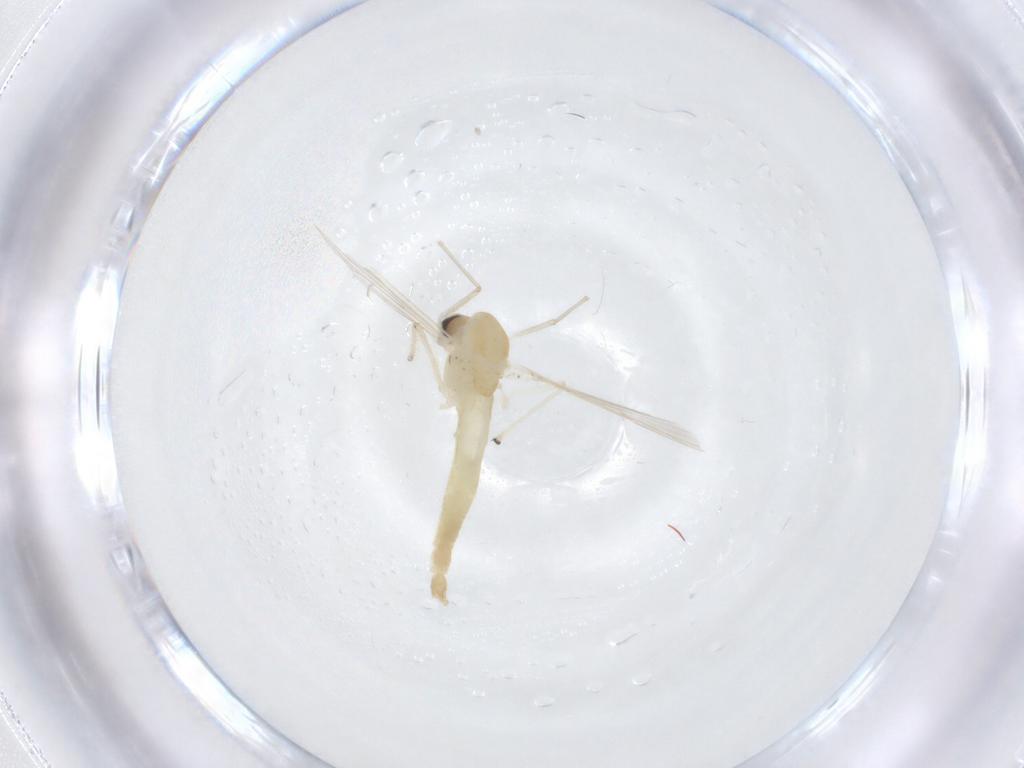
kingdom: Animalia
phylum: Arthropoda
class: Insecta
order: Diptera
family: Chironomidae
